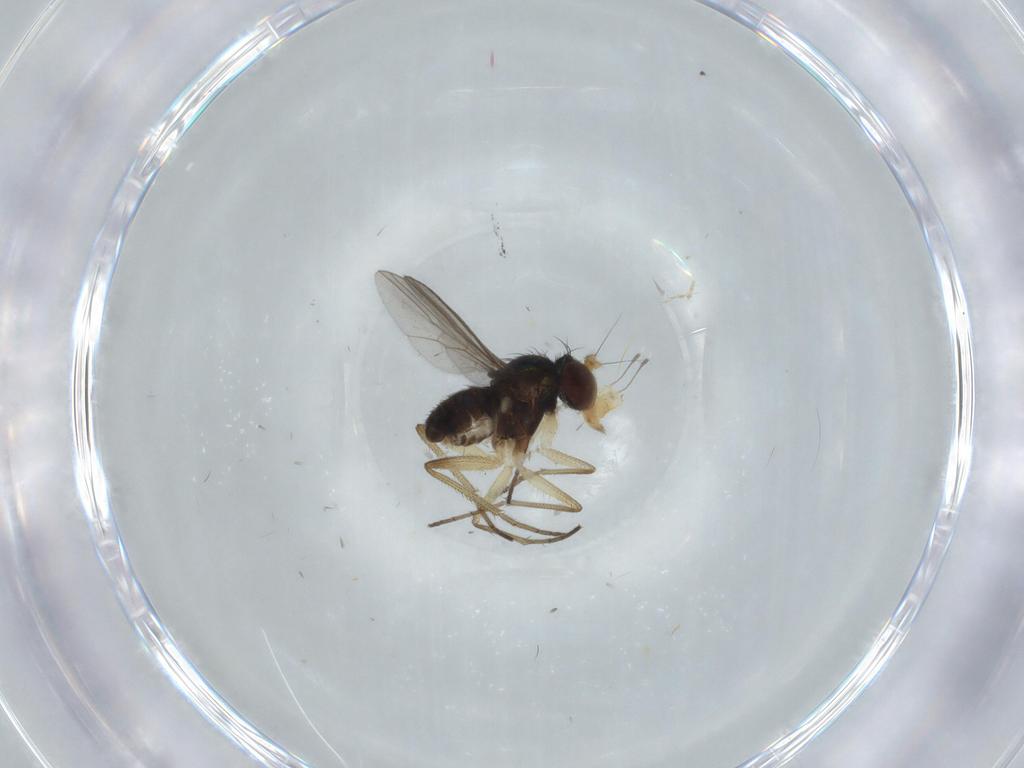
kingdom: Animalia
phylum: Arthropoda
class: Insecta
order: Diptera
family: Dolichopodidae
